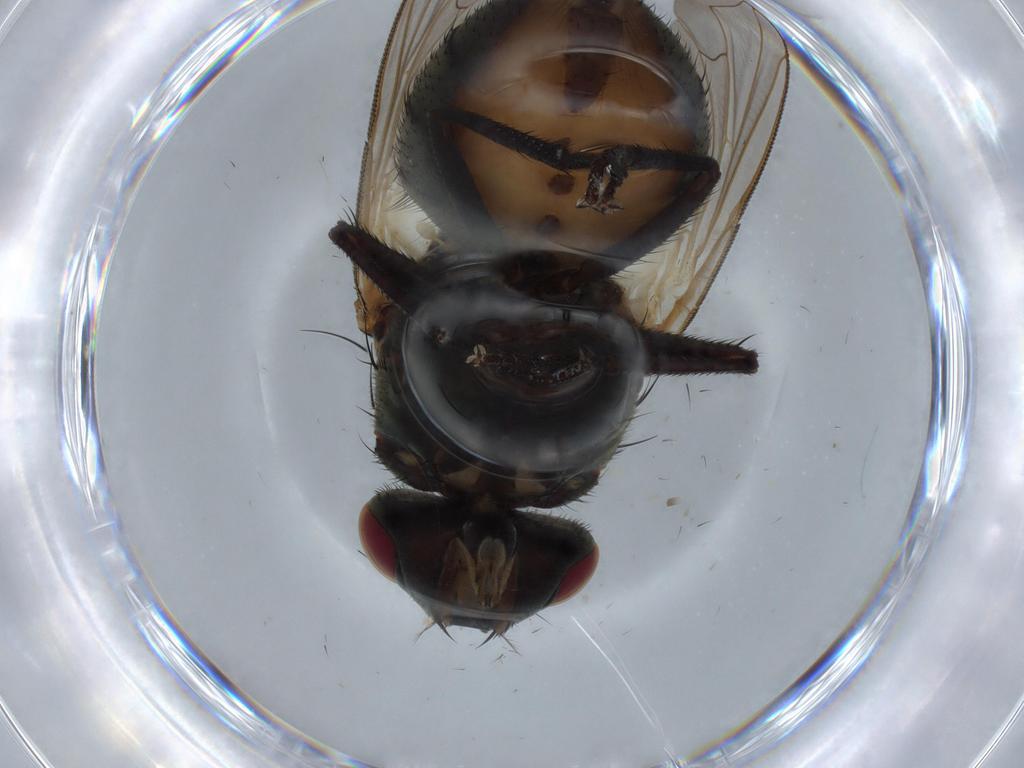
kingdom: Animalia
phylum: Arthropoda
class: Insecta
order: Diptera
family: Dolichopodidae
